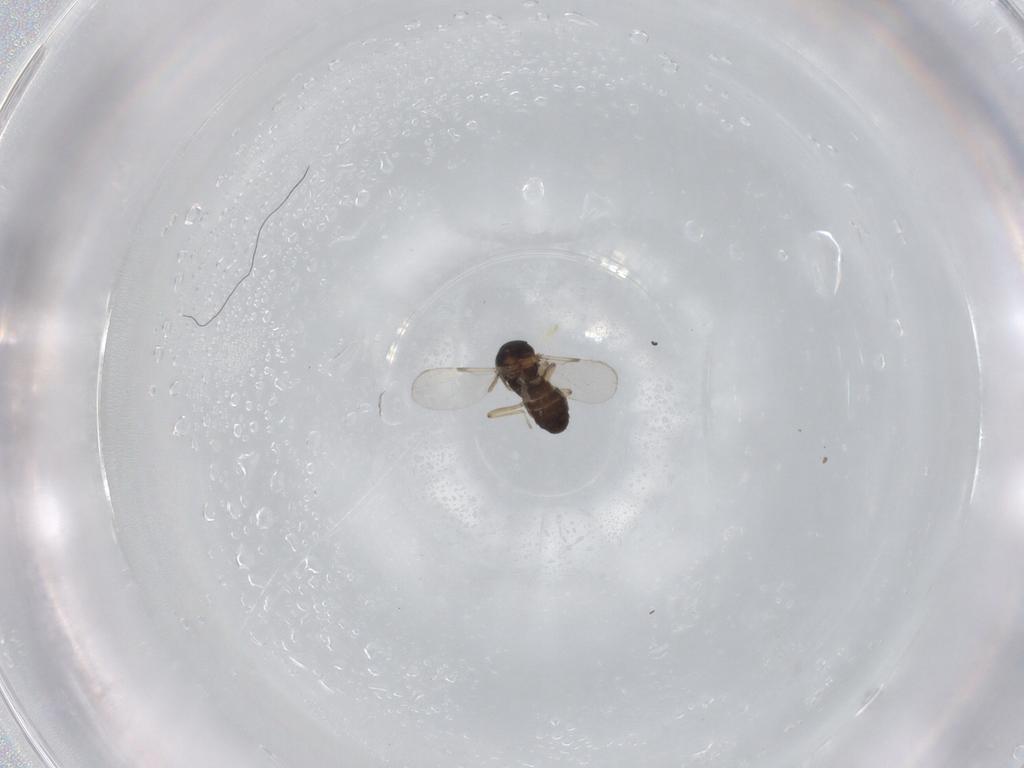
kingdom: Animalia
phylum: Arthropoda
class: Insecta
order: Diptera
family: Ceratopogonidae
